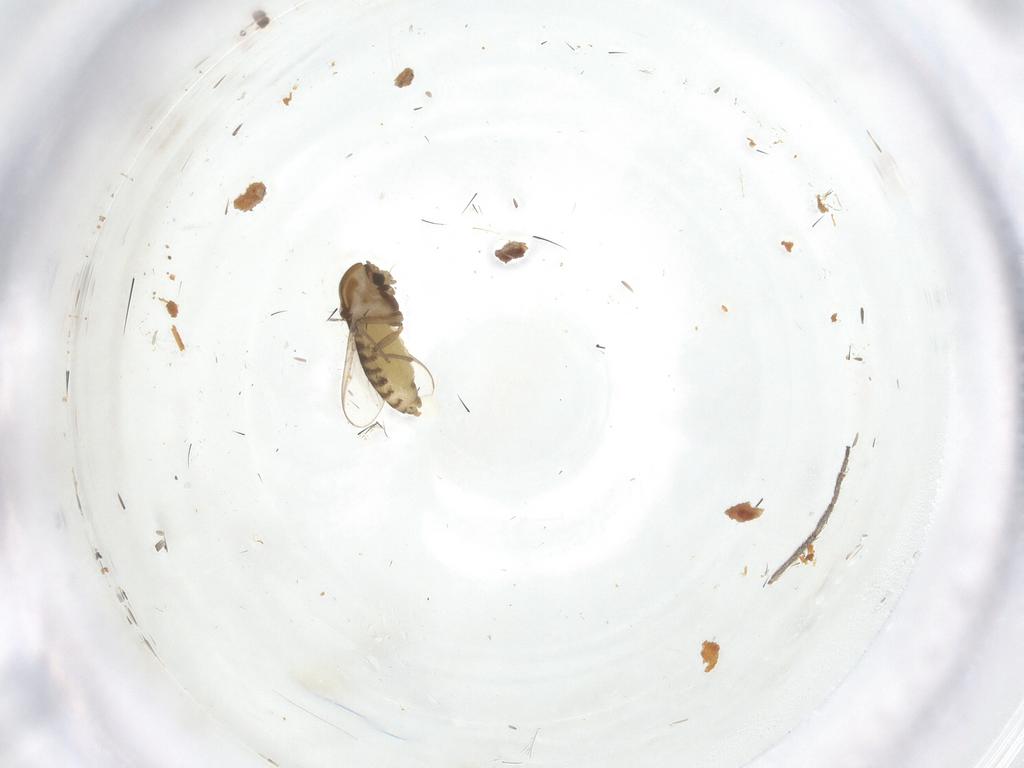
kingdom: Animalia
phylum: Arthropoda
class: Insecta
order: Diptera
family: Chironomidae
